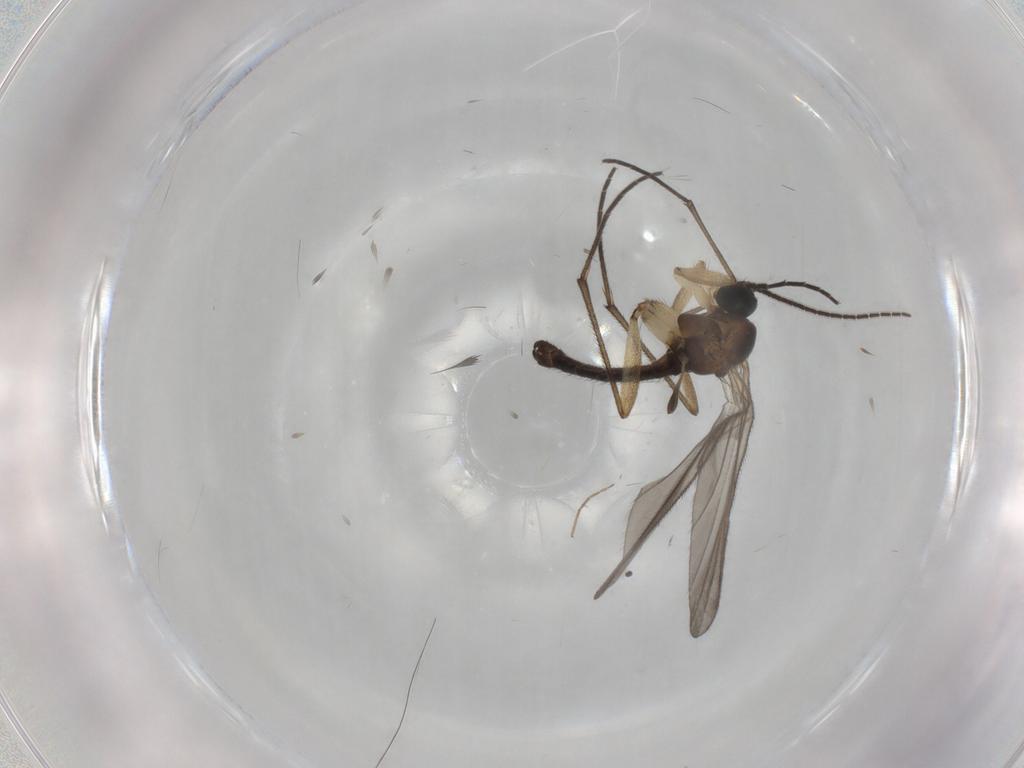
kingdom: Animalia
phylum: Arthropoda
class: Insecta
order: Diptera
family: Sciaridae
